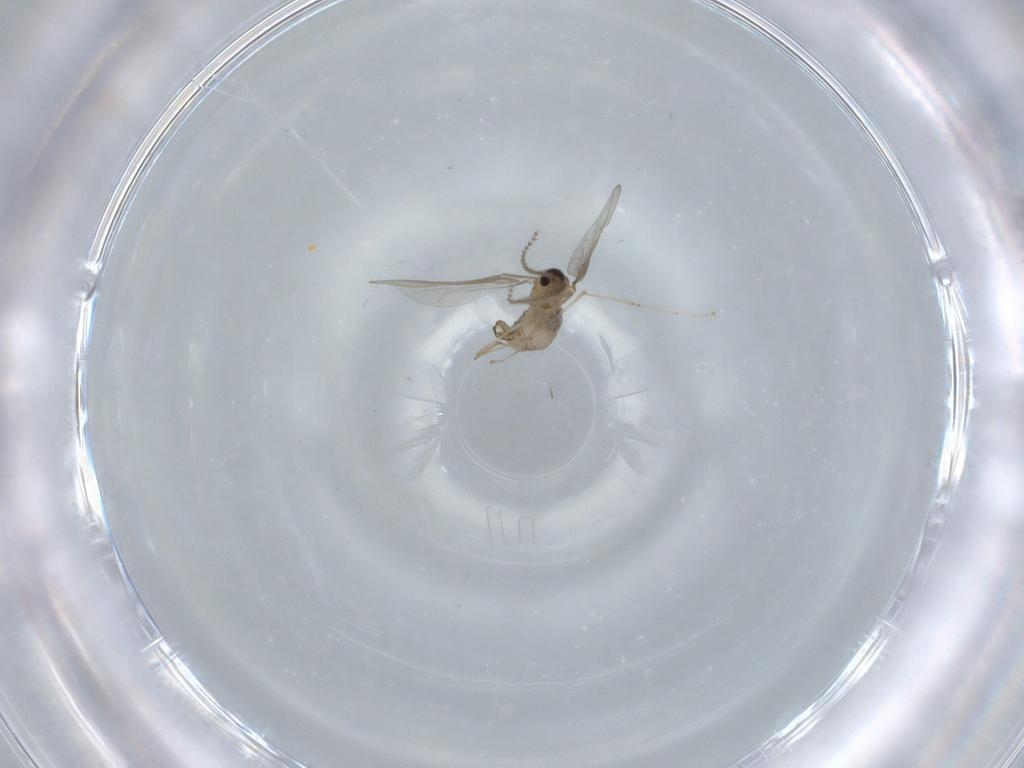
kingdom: Animalia
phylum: Arthropoda
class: Insecta
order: Diptera
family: Sciaridae
